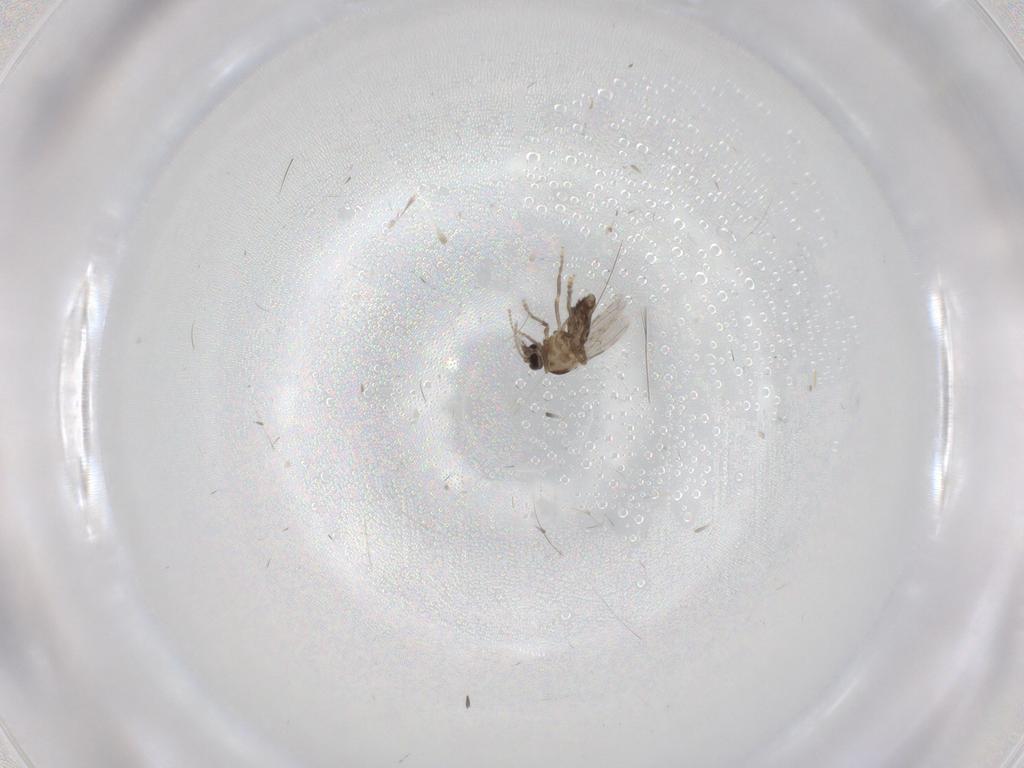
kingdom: Animalia
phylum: Arthropoda
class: Insecta
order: Diptera
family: Ceratopogonidae
